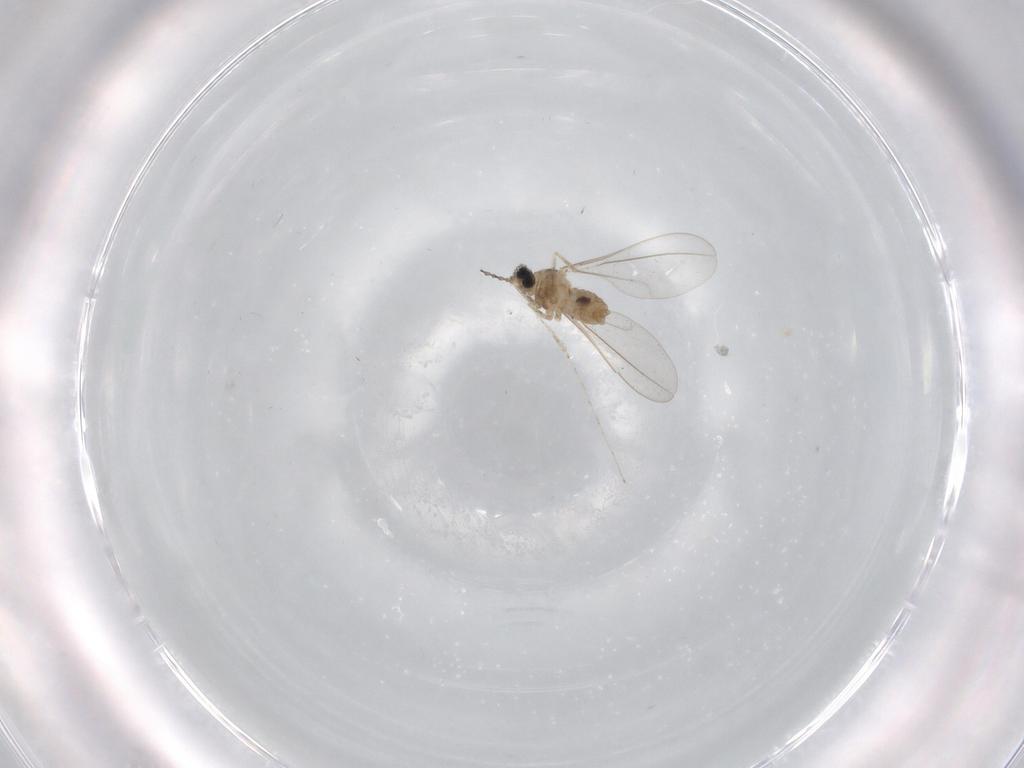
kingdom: Animalia
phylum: Arthropoda
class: Insecta
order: Diptera
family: Cecidomyiidae
